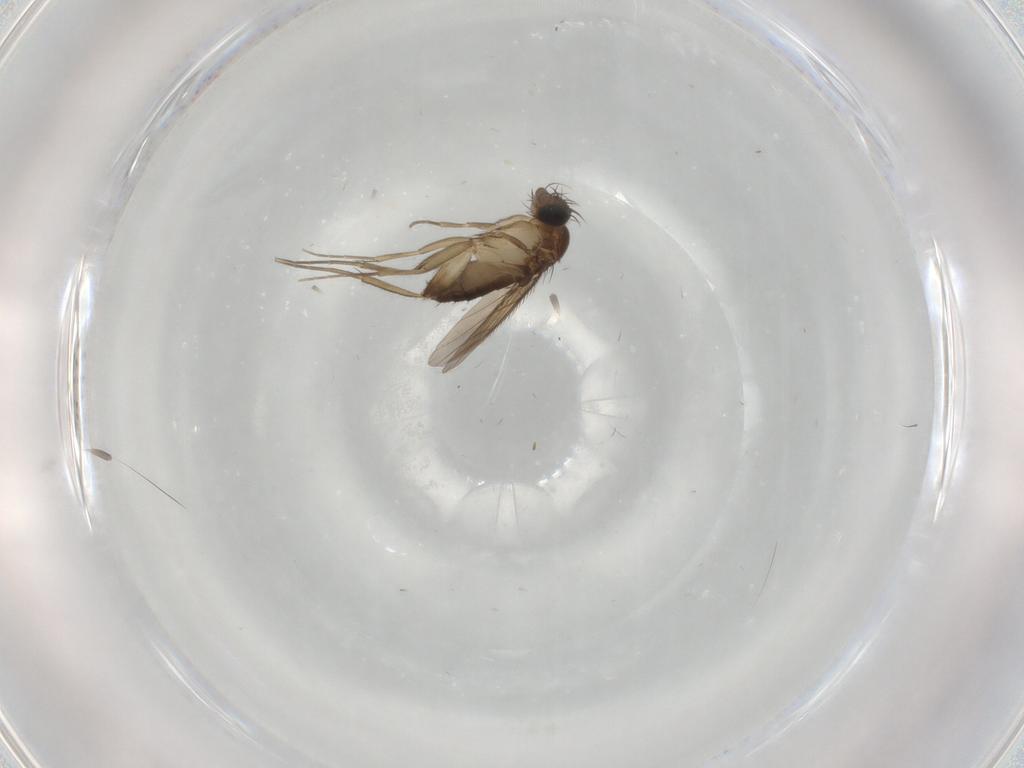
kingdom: Animalia
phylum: Arthropoda
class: Insecta
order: Diptera
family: Phoridae
